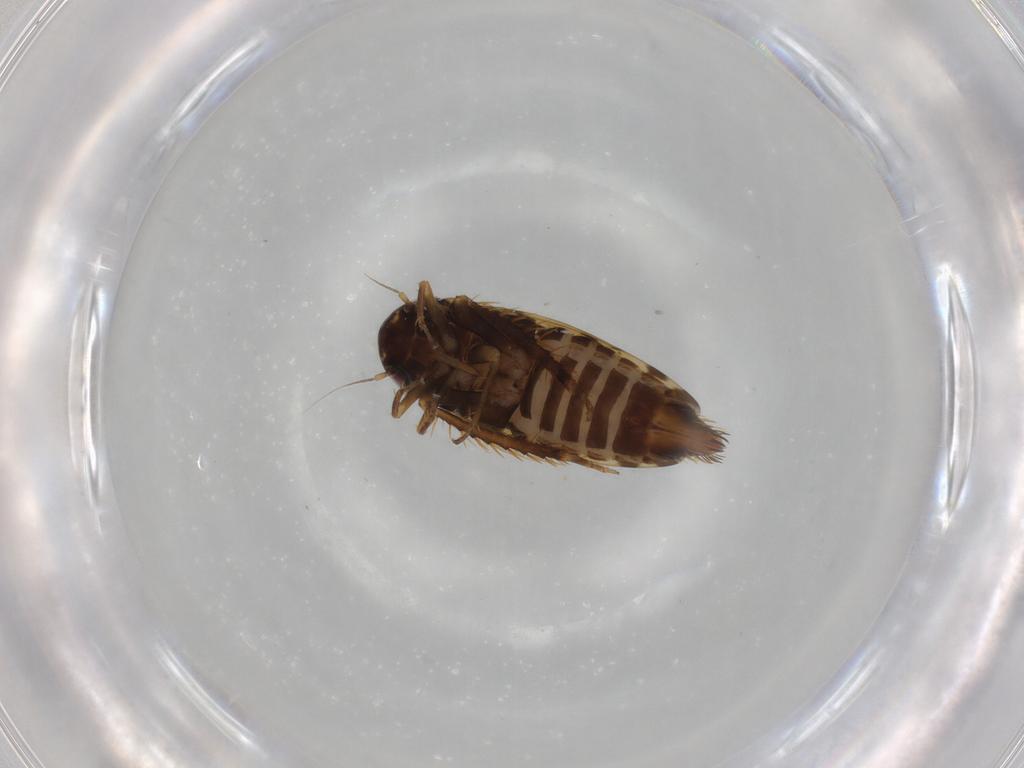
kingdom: Animalia
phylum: Arthropoda
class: Insecta
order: Hemiptera
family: Cicadellidae
